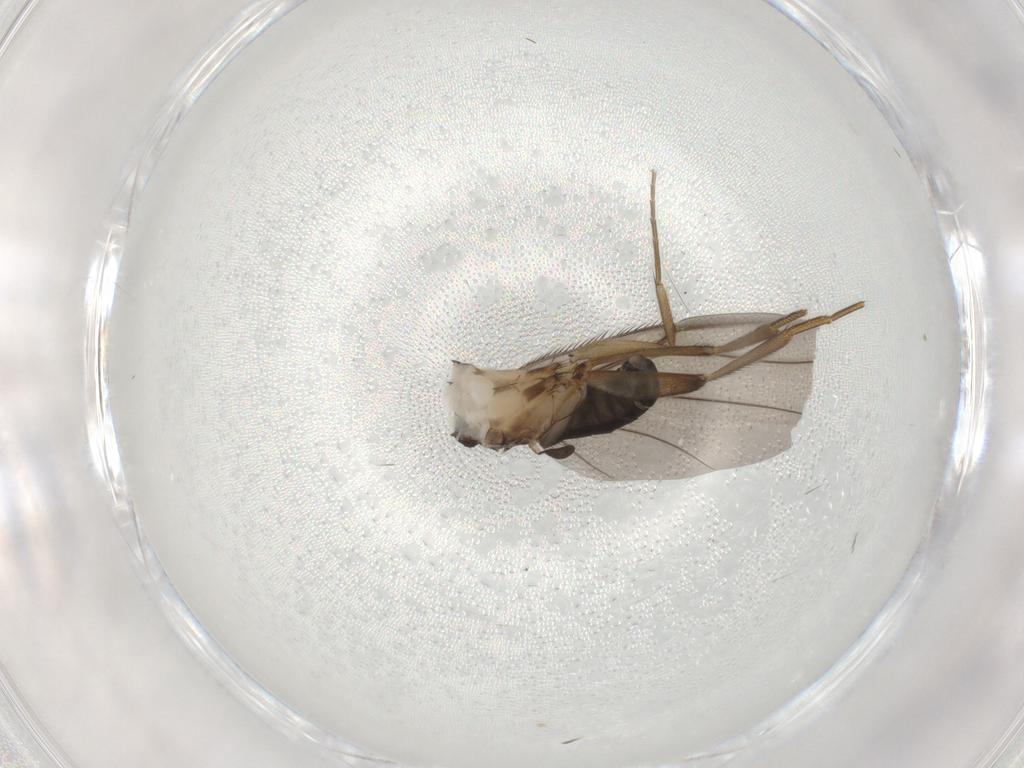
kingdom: Animalia
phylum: Arthropoda
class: Insecta
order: Diptera
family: Phoridae
